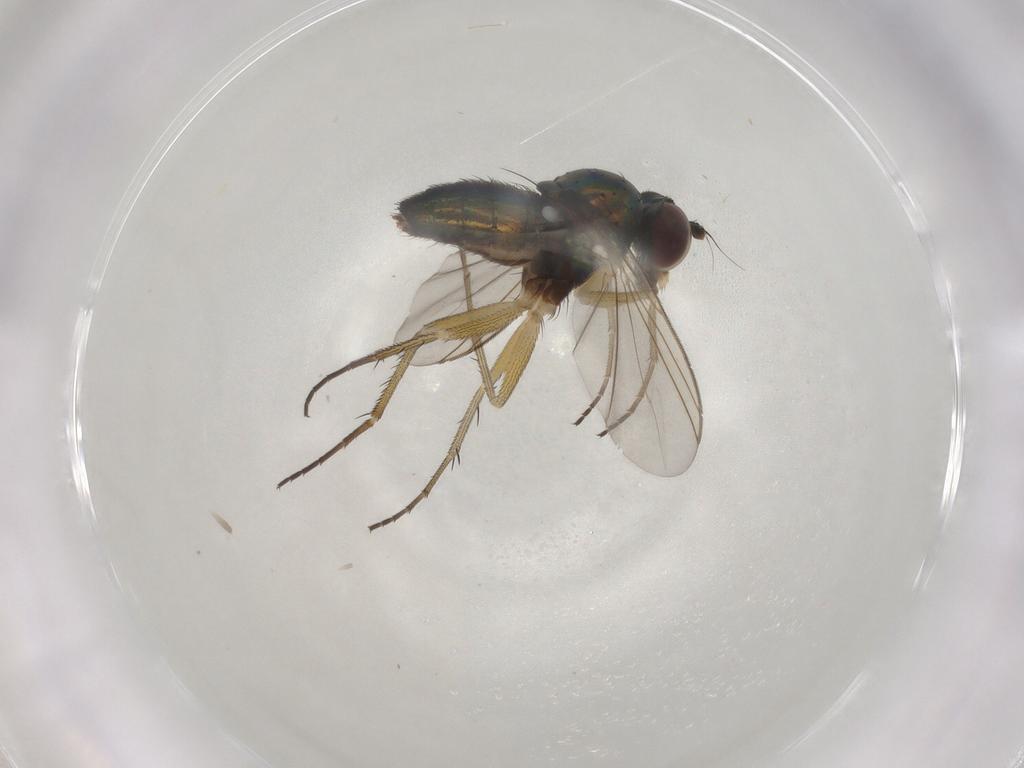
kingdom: Animalia
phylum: Arthropoda
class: Insecta
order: Diptera
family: Dolichopodidae
